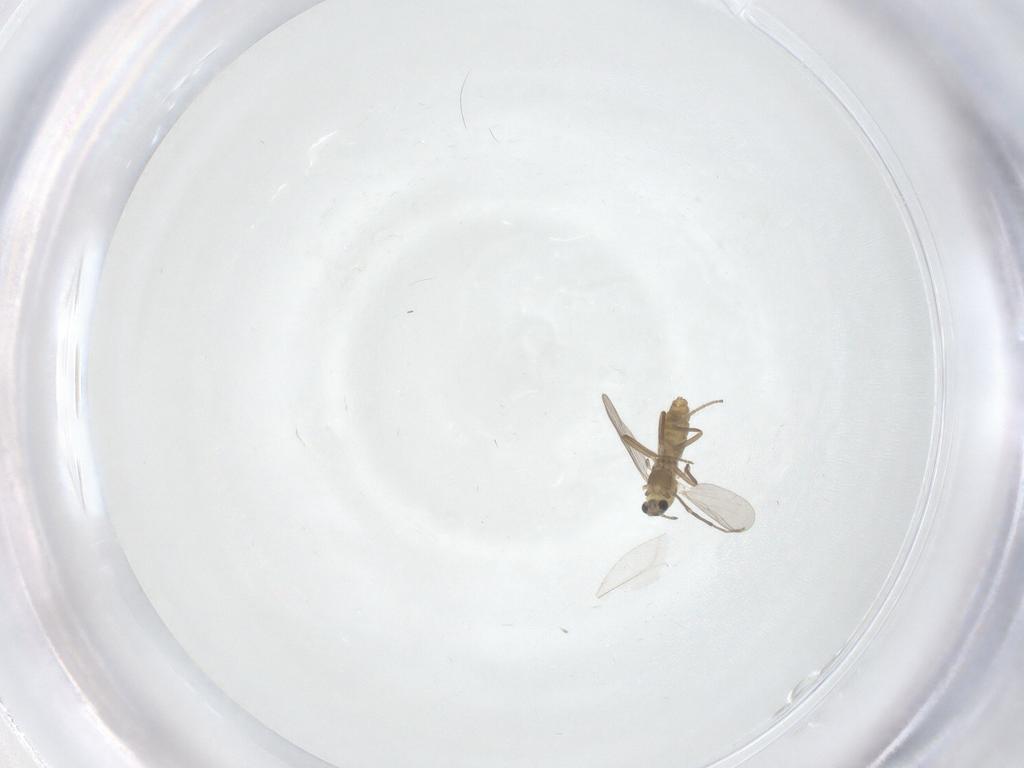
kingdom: Animalia
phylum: Arthropoda
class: Insecta
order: Diptera
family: Chironomidae
